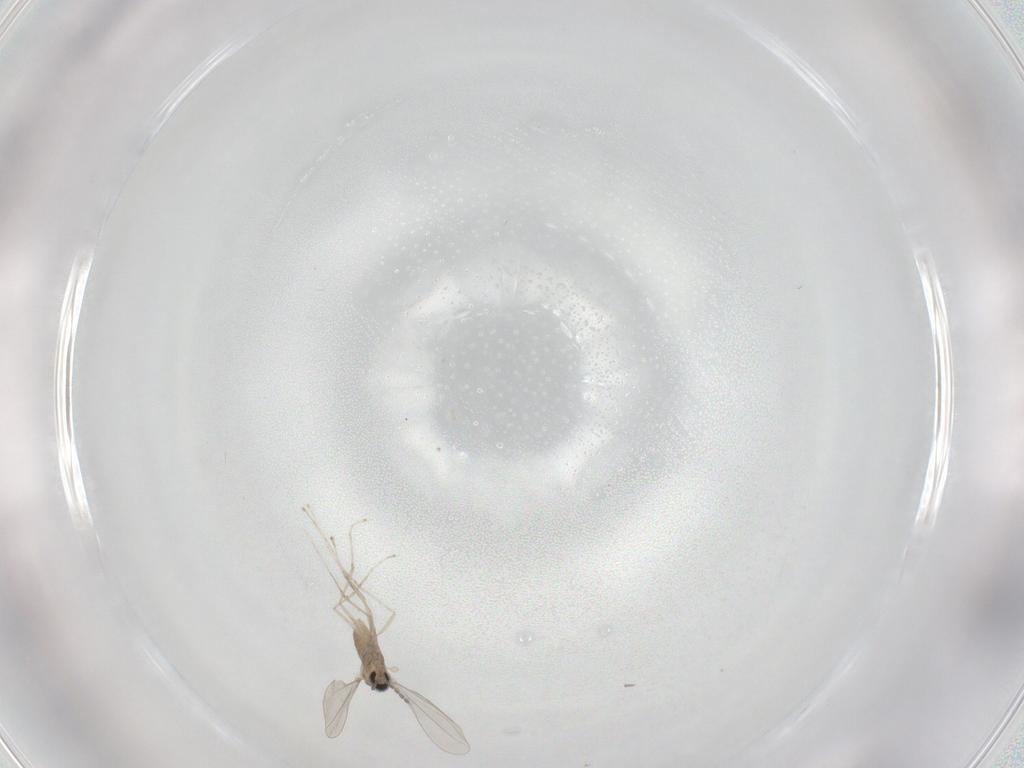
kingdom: Animalia
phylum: Arthropoda
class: Insecta
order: Diptera
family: Cecidomyiidae
